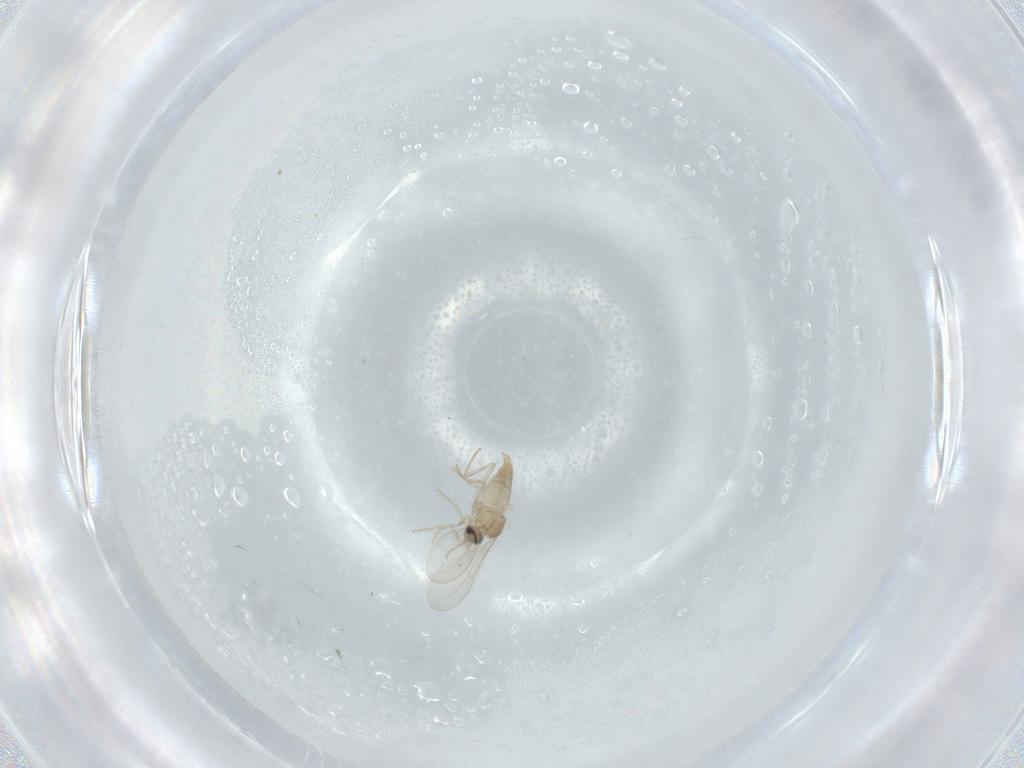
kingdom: Animalia
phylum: Arthropoda
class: Insecta
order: Diptera
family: Cecidomyiidae
